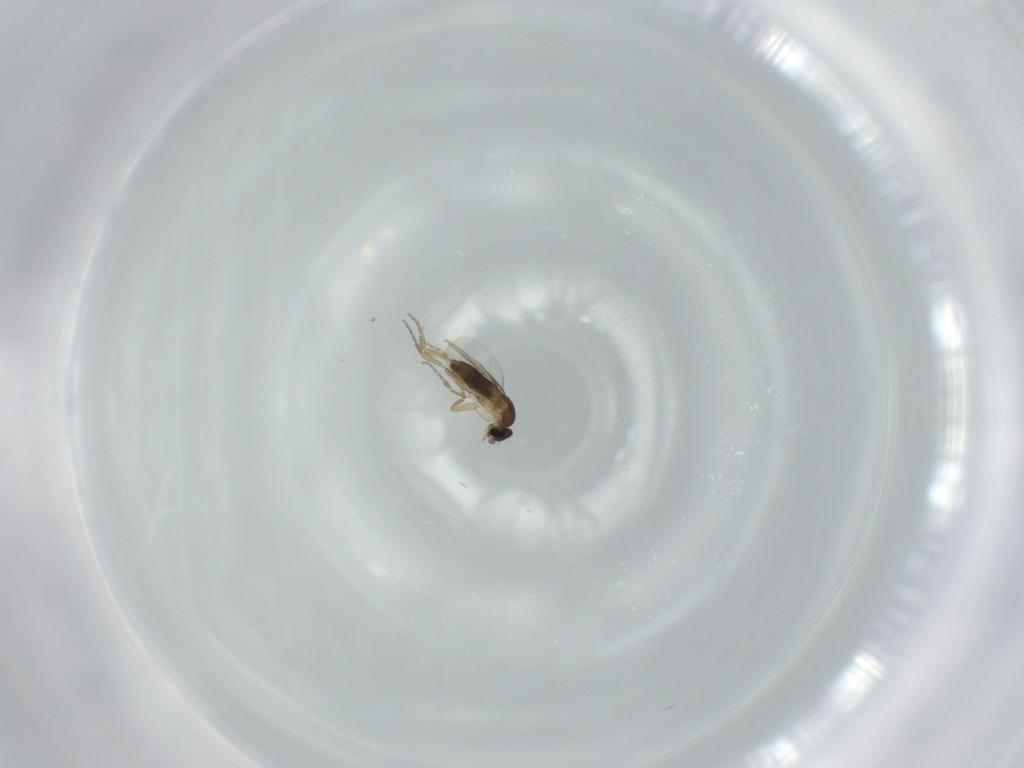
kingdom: Animalia
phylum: Arthropoda
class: Insecta
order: Diptera
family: Phoridae
